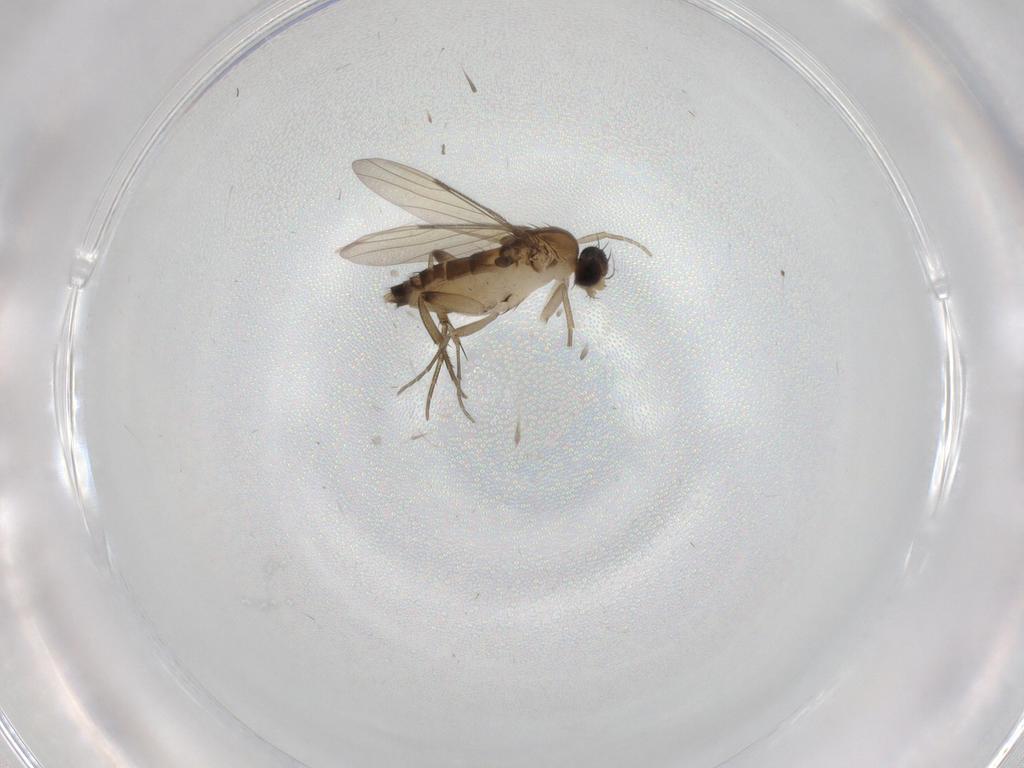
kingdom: Animalia
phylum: Arthropoda
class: Insecta
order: Diptera
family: Phoridae
